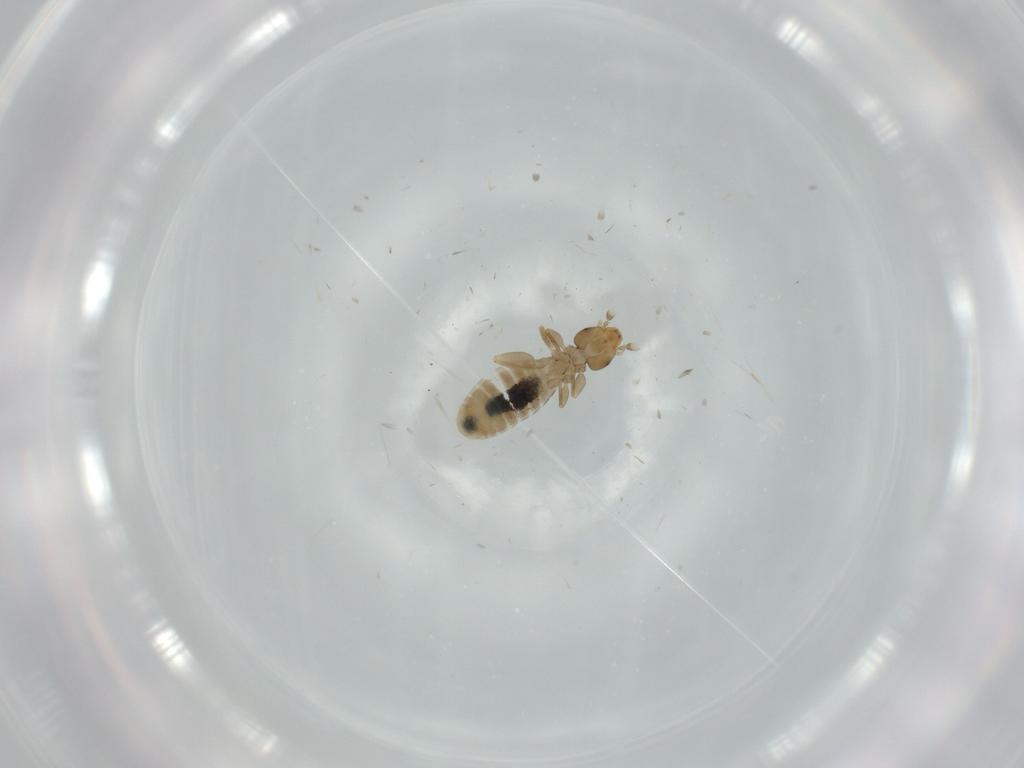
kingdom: Animalia
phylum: Arthropoda
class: Insecta
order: Psocodea
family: Liposcelididae
